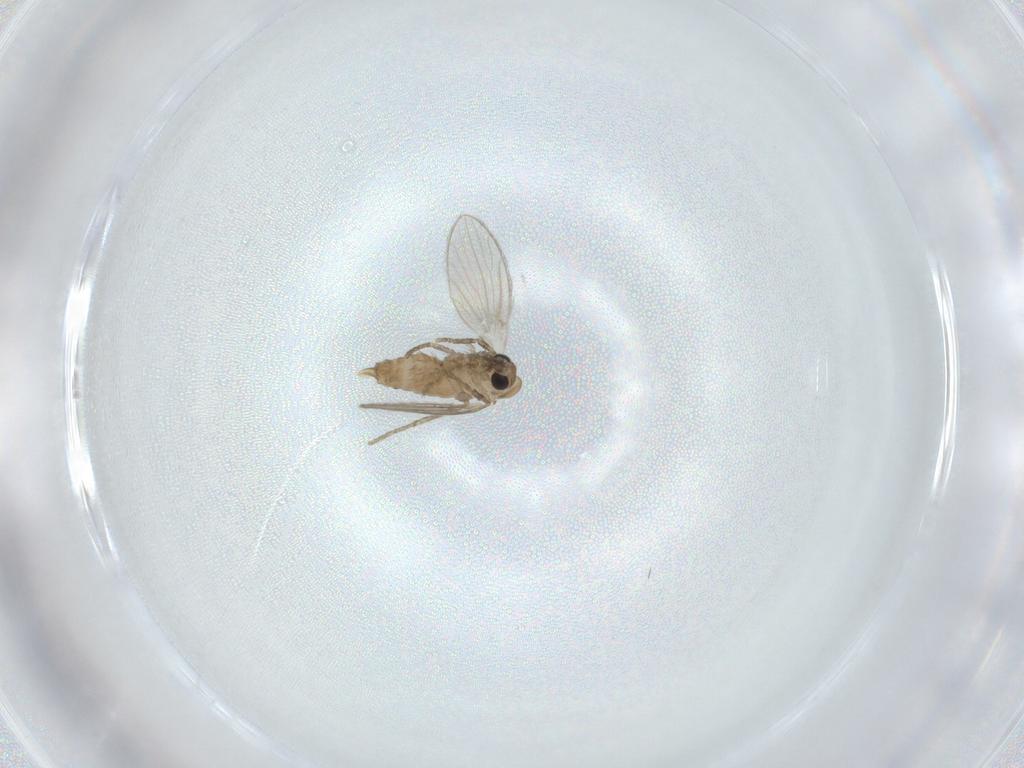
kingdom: Animalia
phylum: Arthropoda
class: Insecta
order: Diptera
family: Psychodidae
